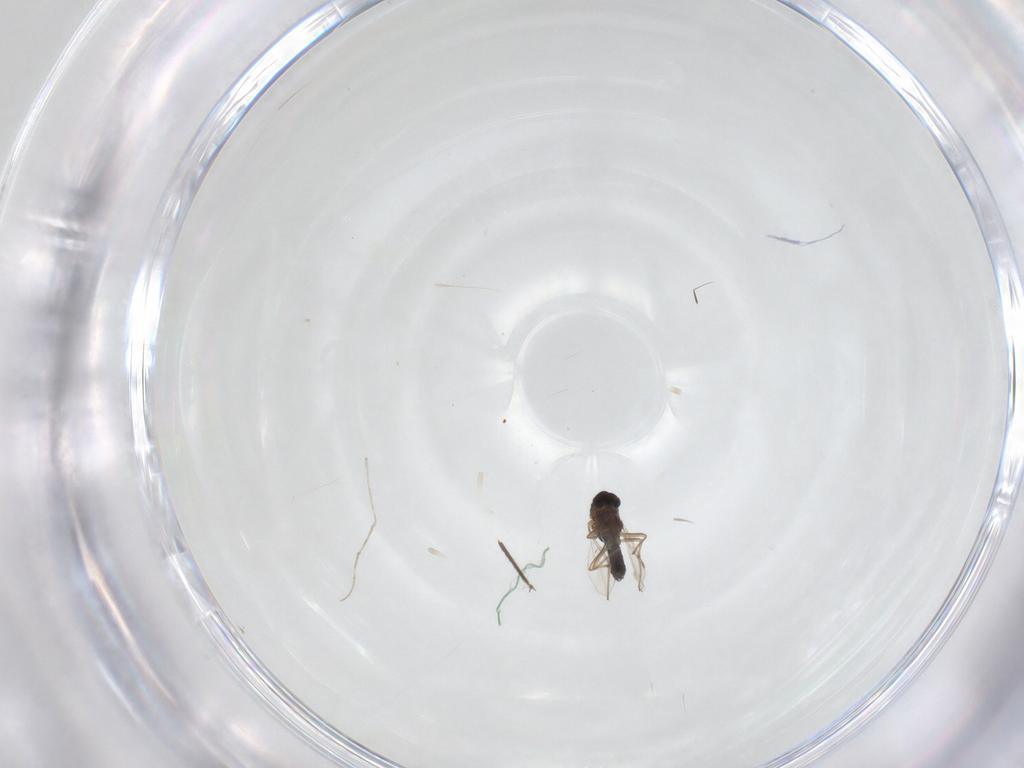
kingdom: Animalia
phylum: Arthropoda
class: Insecta
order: Diptera
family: Chironomidae
